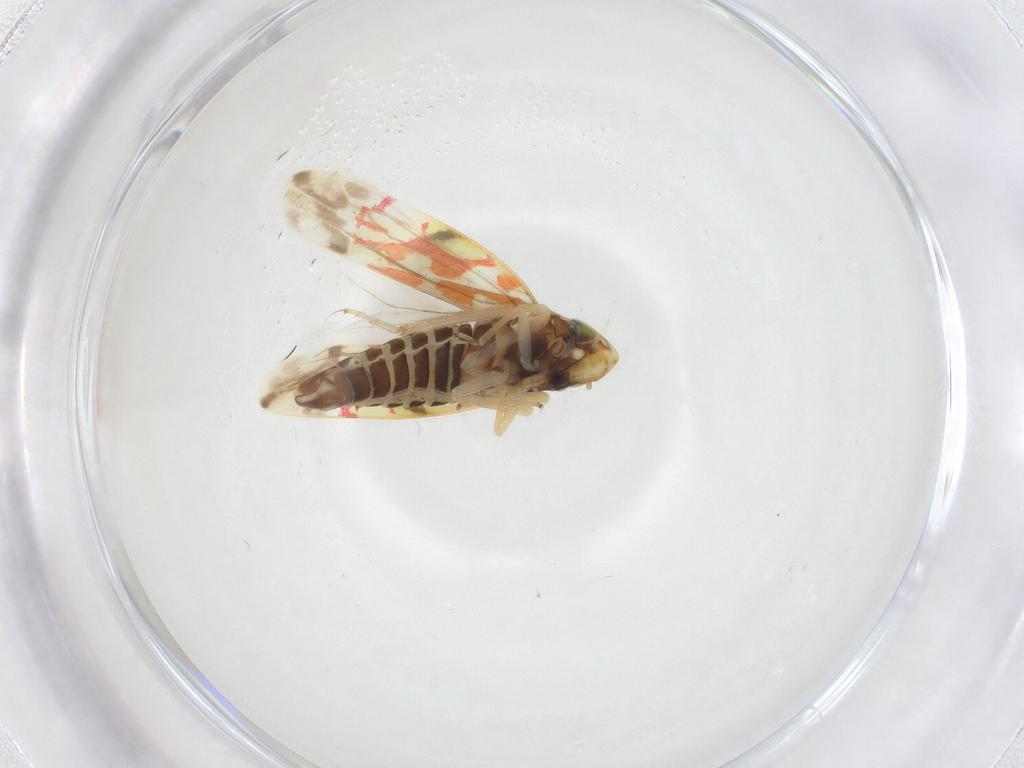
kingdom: Animalia
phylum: Arthropoda
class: Insecta
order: Hemiptera
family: Cicadellidae
